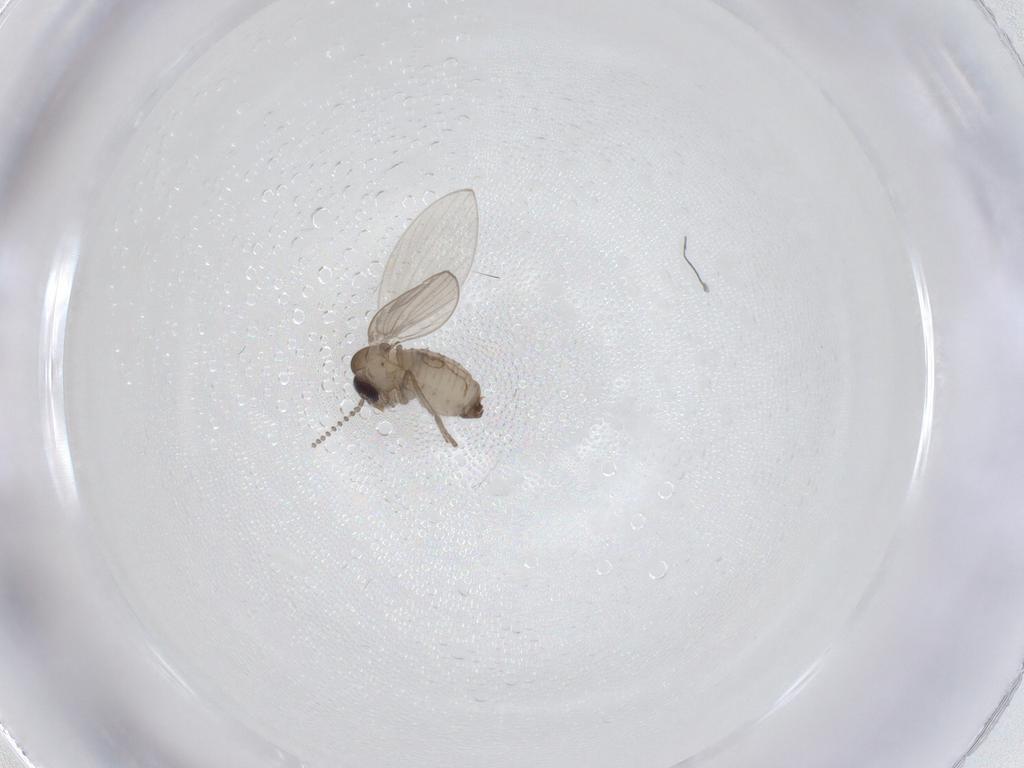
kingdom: Animalia
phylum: Arthropoda
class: Insecta
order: Diptera
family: Psychodidae
